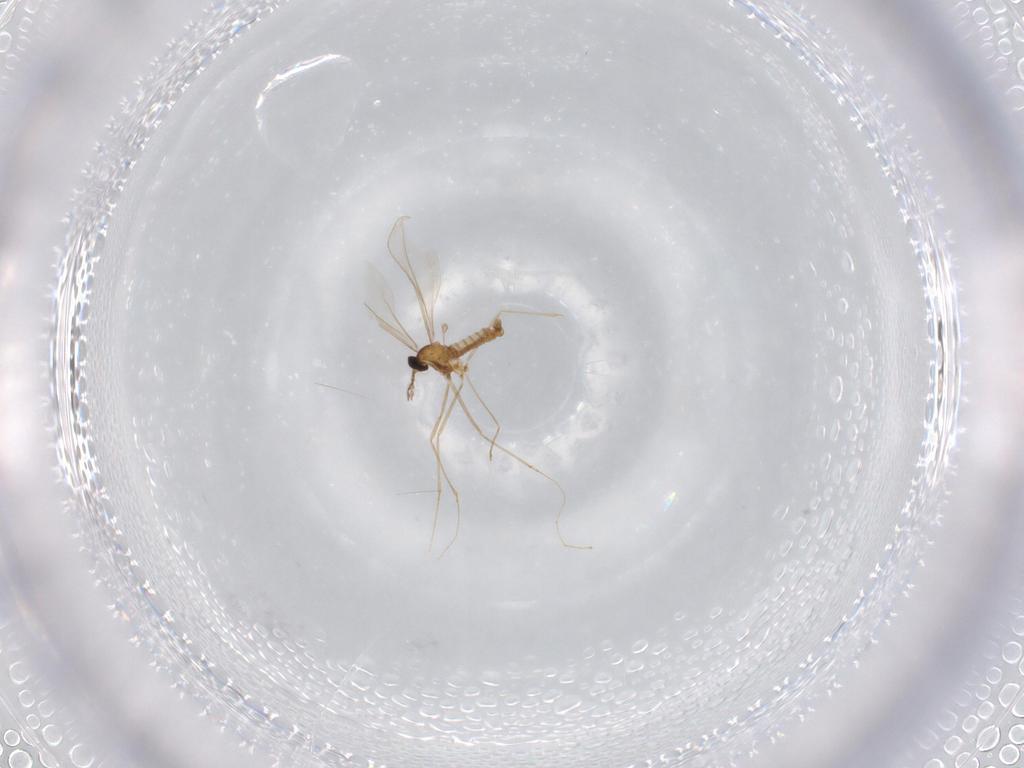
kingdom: Animalia
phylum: Arthropoda
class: Insecta
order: Diptera
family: Cecidomyiidae
